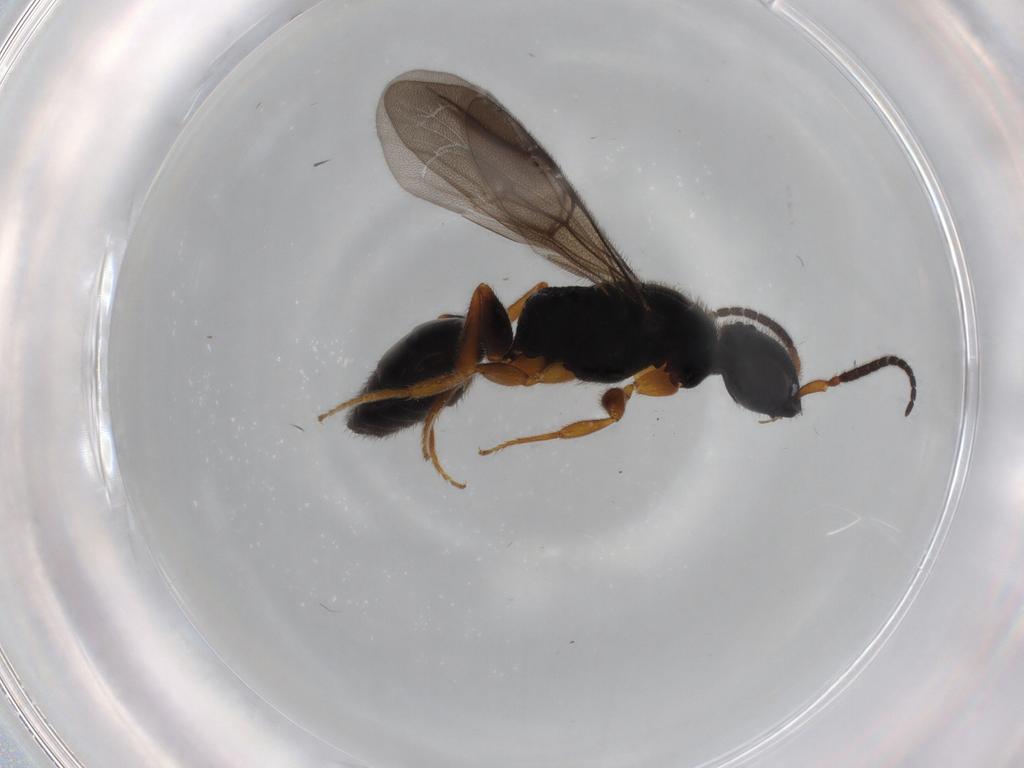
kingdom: Animalia
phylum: Arthropoda
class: Insecta
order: Hymenoptera
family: Bethylidae
